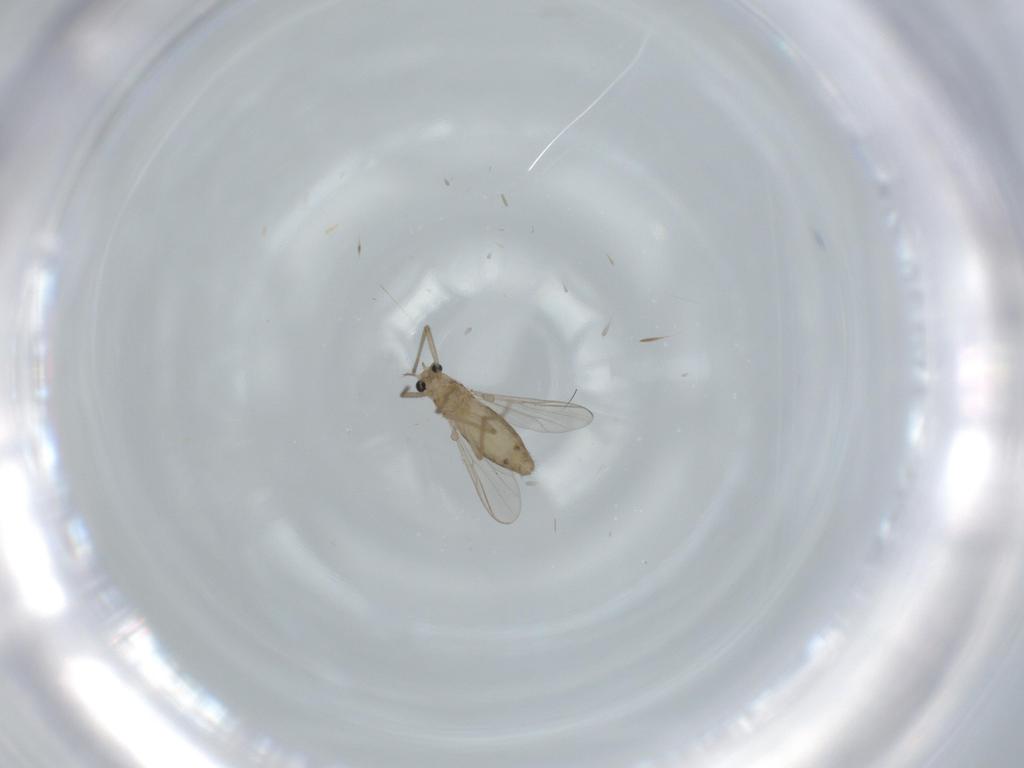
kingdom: Animalia
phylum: Arthropoda
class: Insecta
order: Diptera
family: Chironomidae
